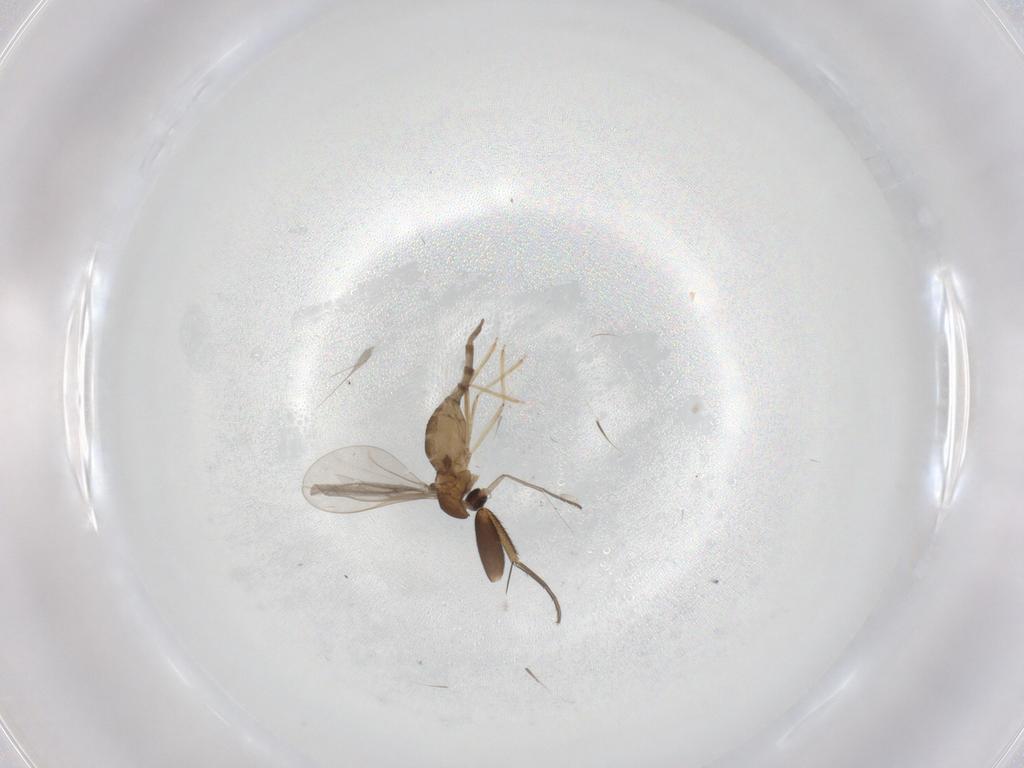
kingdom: Animalia
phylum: Arthropoda
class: Insecta
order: Diptera
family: Cecidomyiidae
